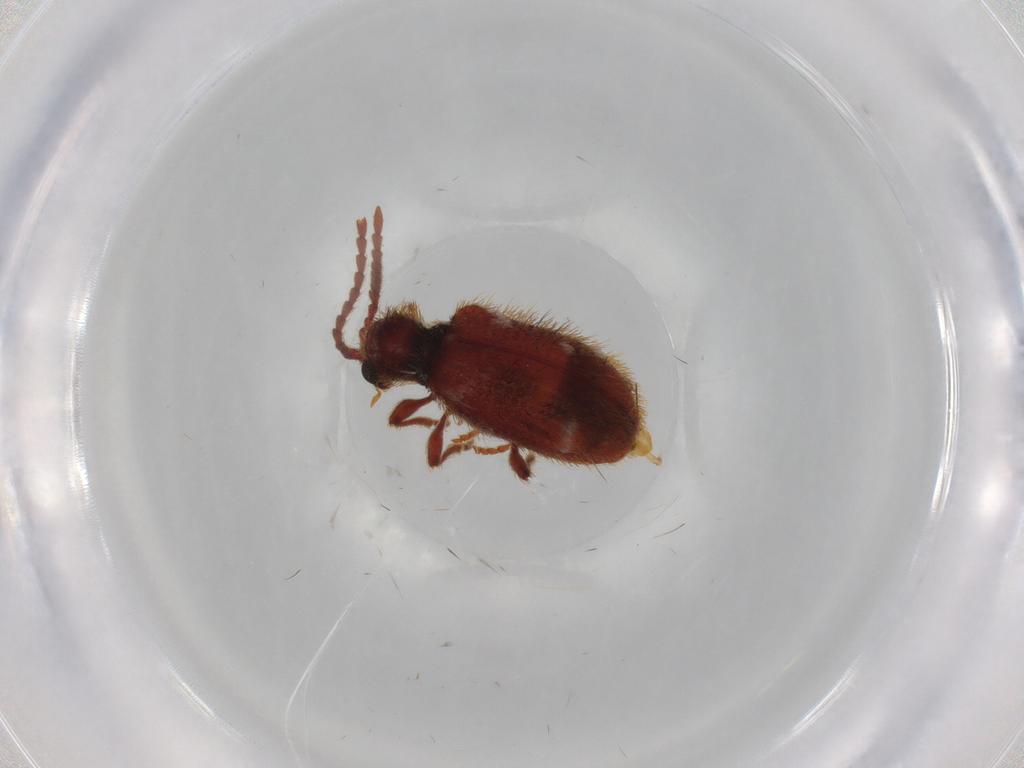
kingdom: Animalia
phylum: Arthropoda
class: Insecta
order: Coleoptera
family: Ptinidae
